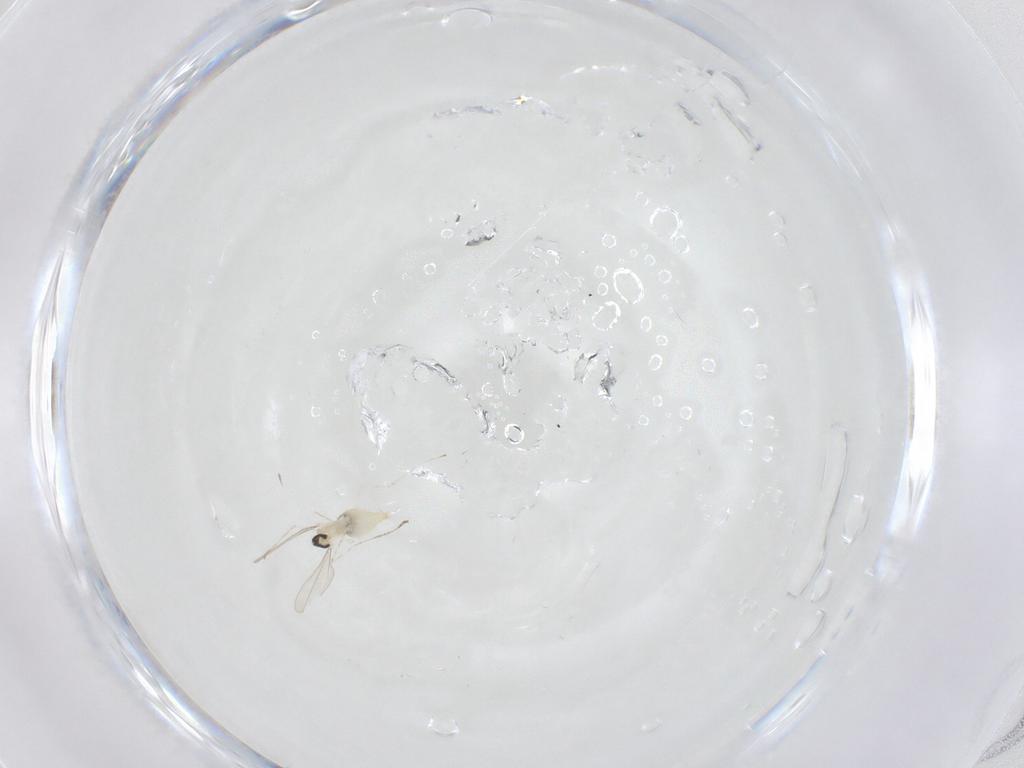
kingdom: Animalia
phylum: Arthropoda
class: Insecta
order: Diptera
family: Cecidomyiidae
